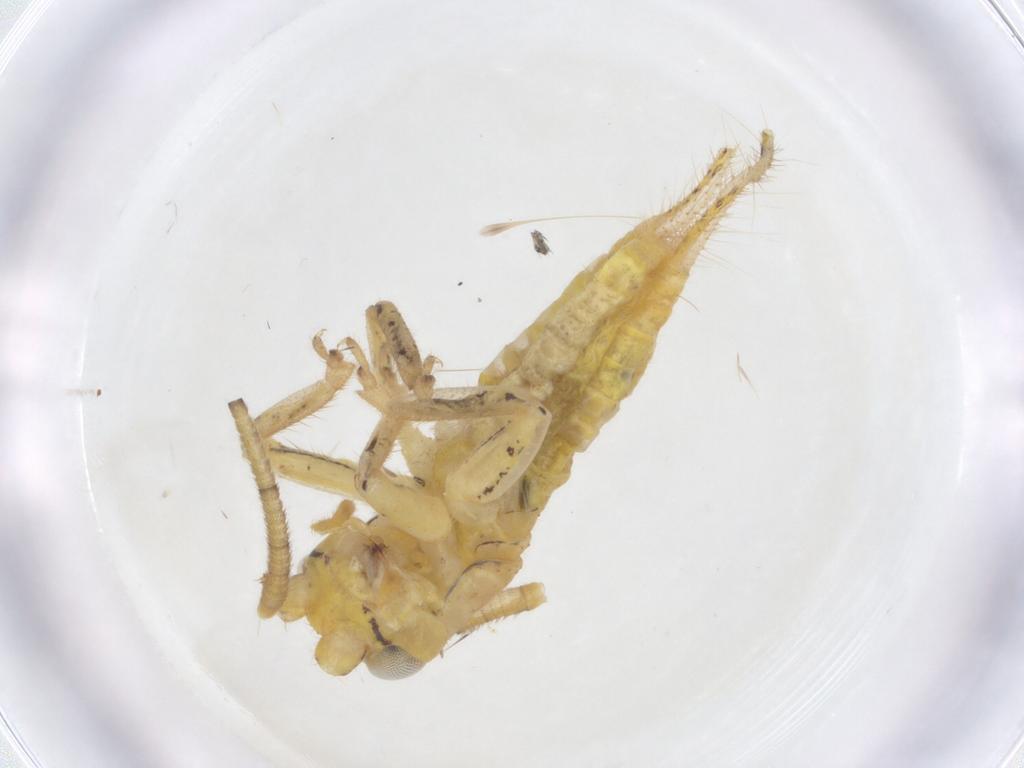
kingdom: Animalia
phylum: Arthropoda
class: Insecta
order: Orthoptera
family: Gryllidae
